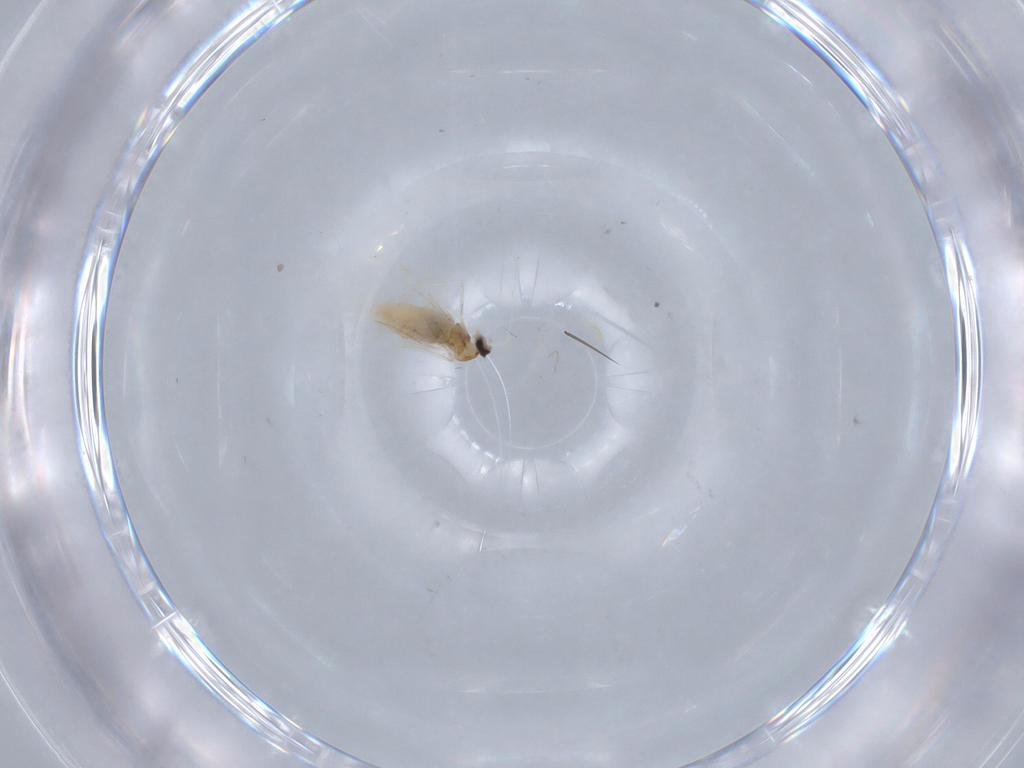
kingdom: Animalia
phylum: Arthropoda
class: Insecta
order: Diptera
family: Cecidomyiidae
